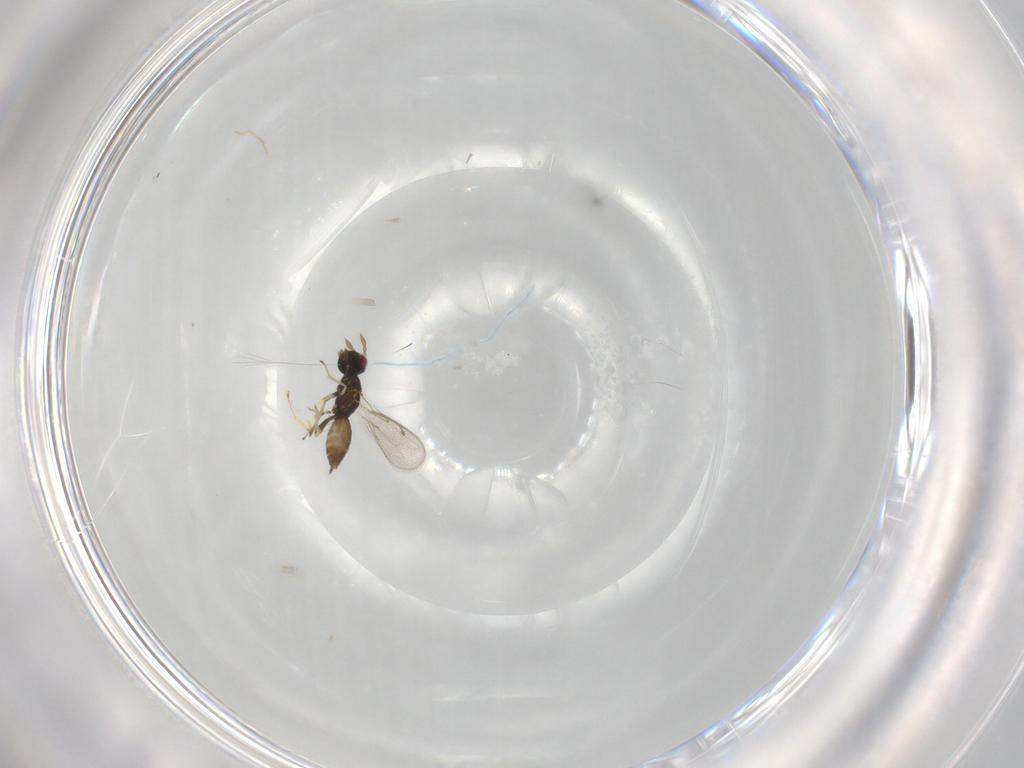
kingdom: Animalia
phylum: Arthropoda
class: Insecta
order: Hymenoptera
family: Eulophidae
